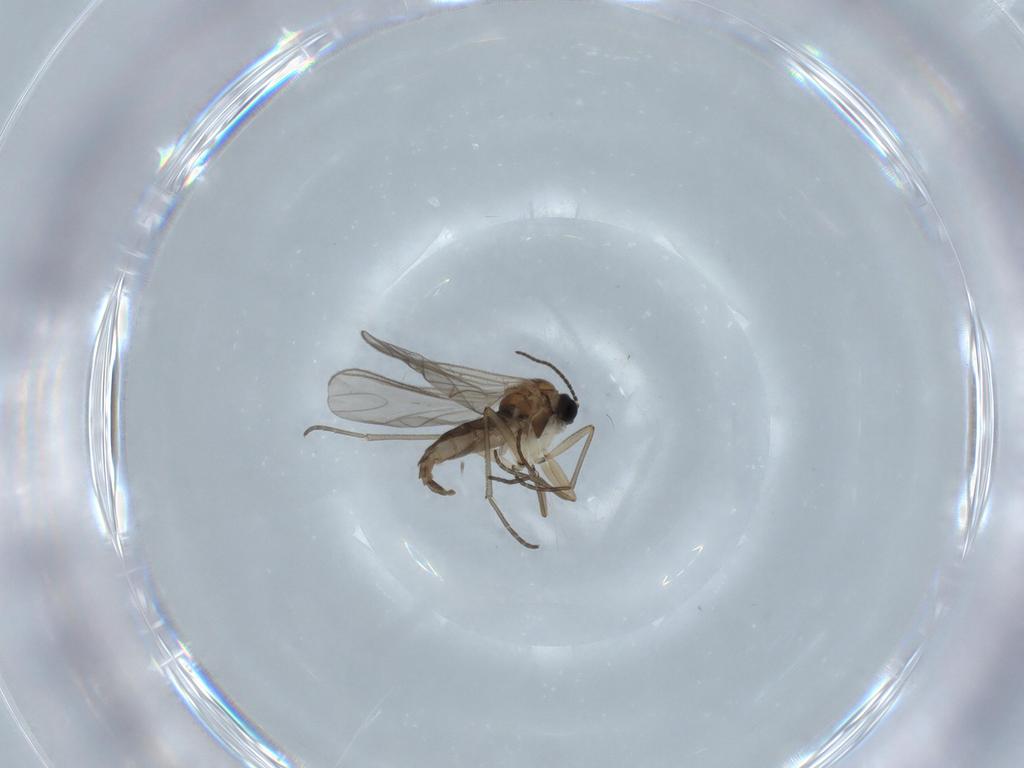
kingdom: Animalia
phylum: Arthropoda
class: Insecta
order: Diptera
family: Sciaridae
